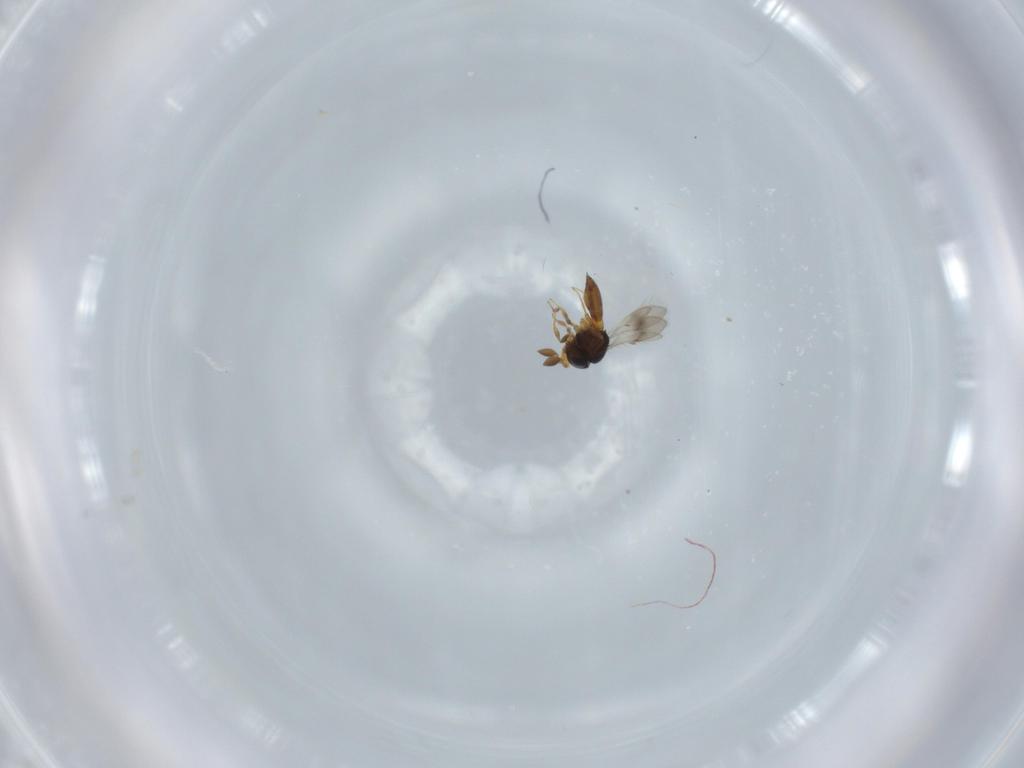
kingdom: Animalia
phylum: Arthropoda
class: Insecta
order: Hymenoptera
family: Scelionidae
